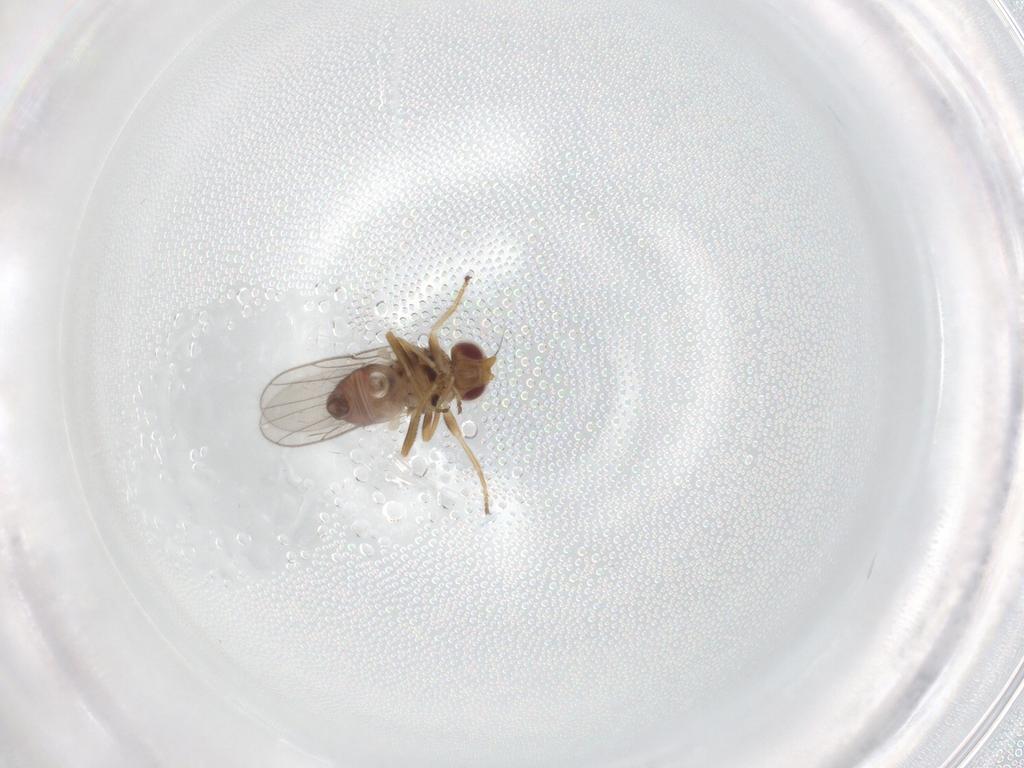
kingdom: Animalia
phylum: Arthropoda
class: Insecta
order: Diptera
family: Chloropidae
